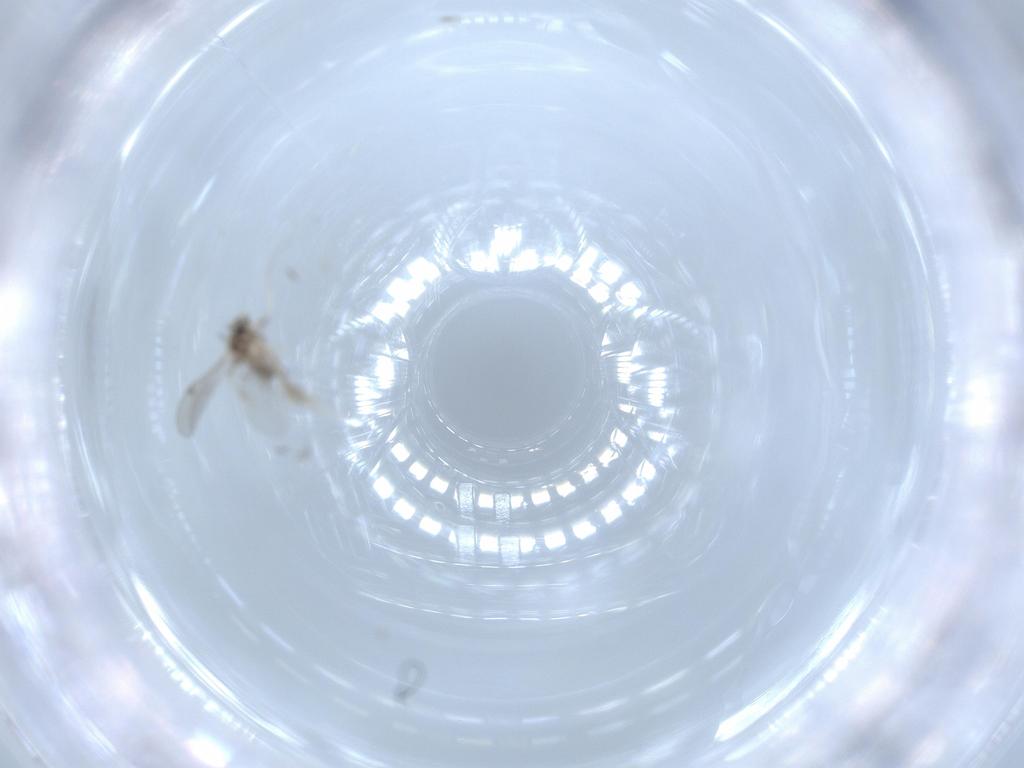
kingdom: Animalia
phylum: Arthropoda
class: Insecta
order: Diptera
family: Cecidomyiidae
